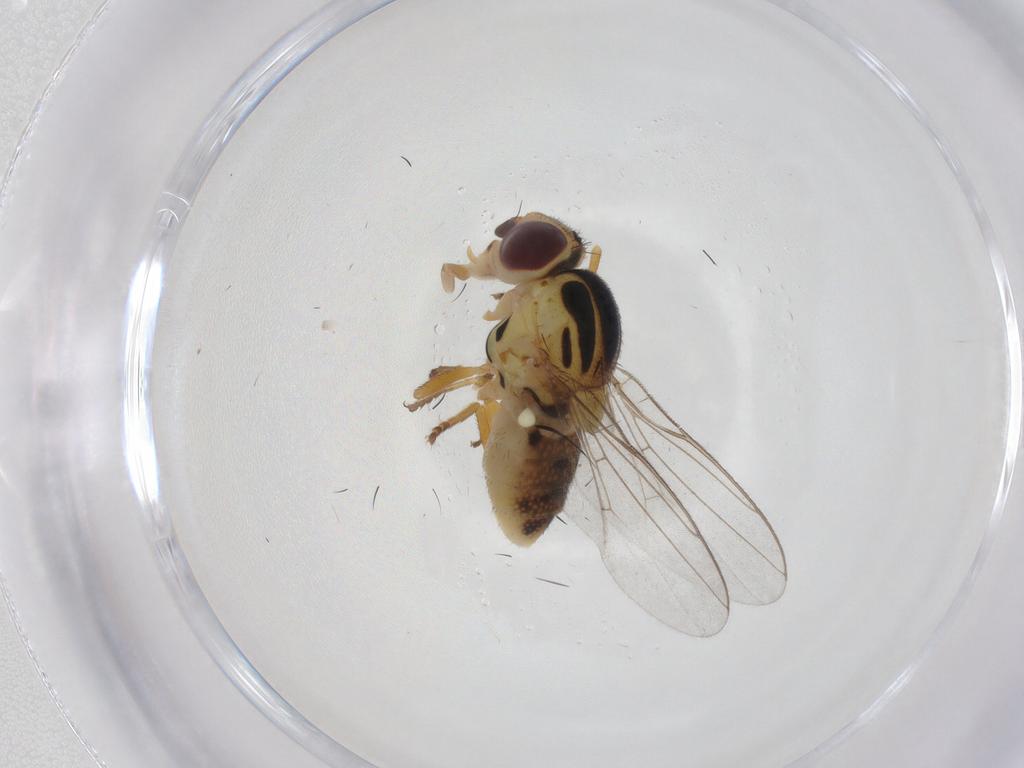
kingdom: Animalia
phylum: Arthropoda
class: Insecta
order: Diptera
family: Chloropidae
